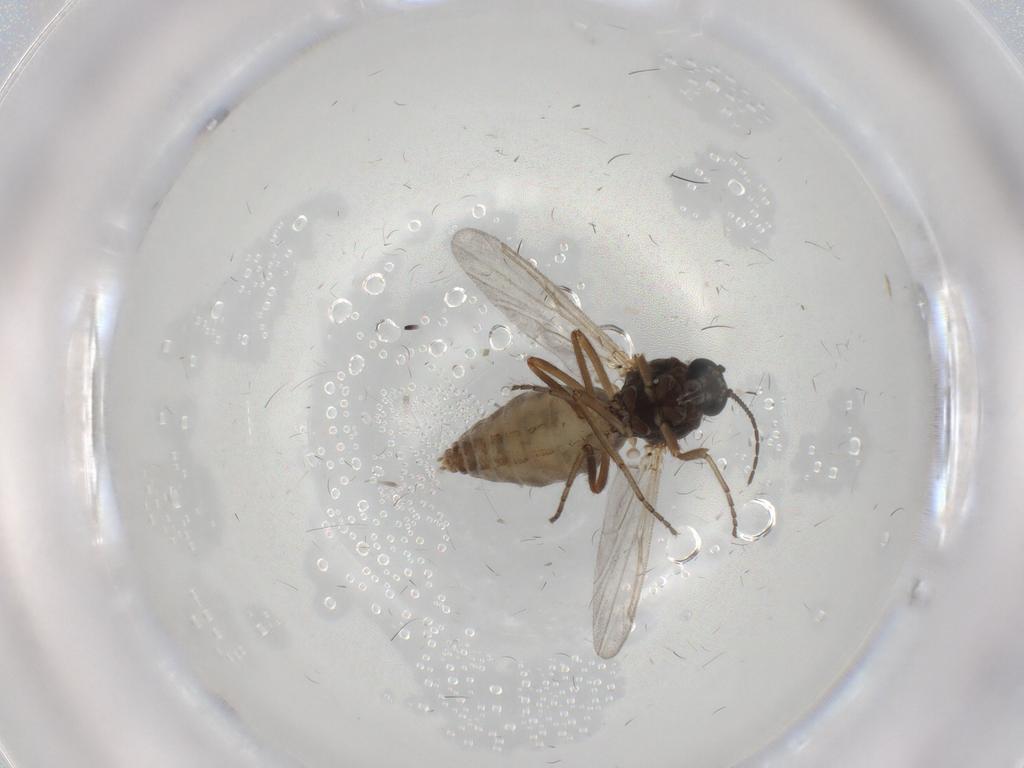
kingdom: Animalia
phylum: Arthropoda
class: Insecta
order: Diptera
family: Ceratopogonidae
